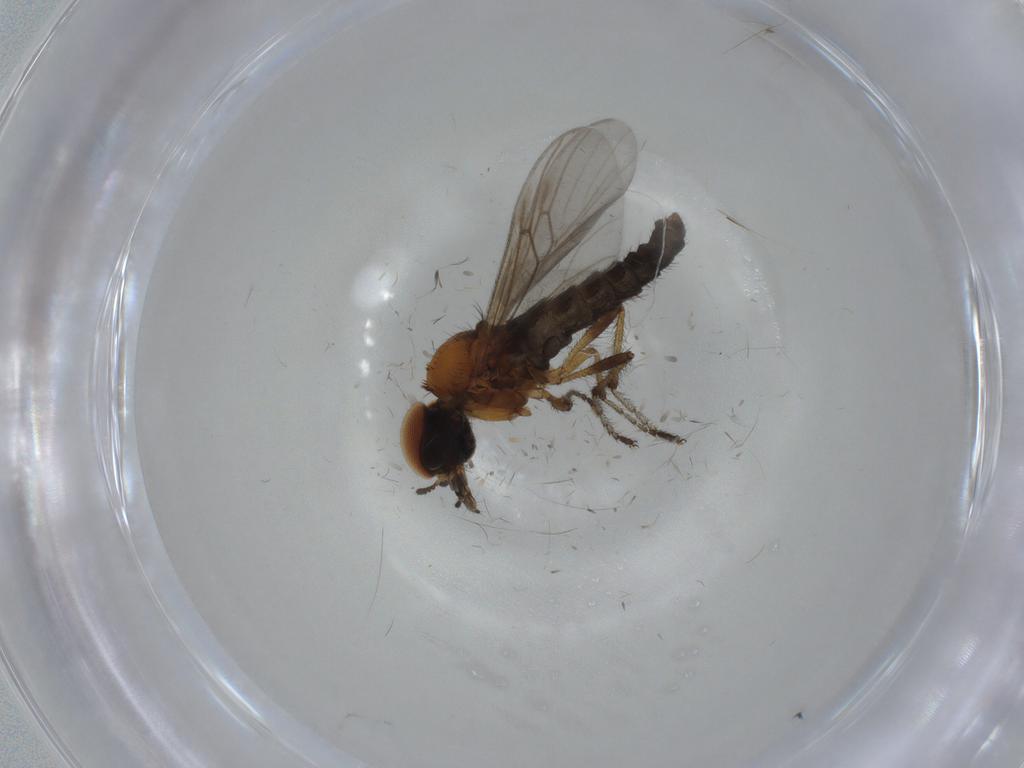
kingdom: Animalia
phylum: Arthropoda
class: Insecta
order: Diptera
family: Bibionidae
